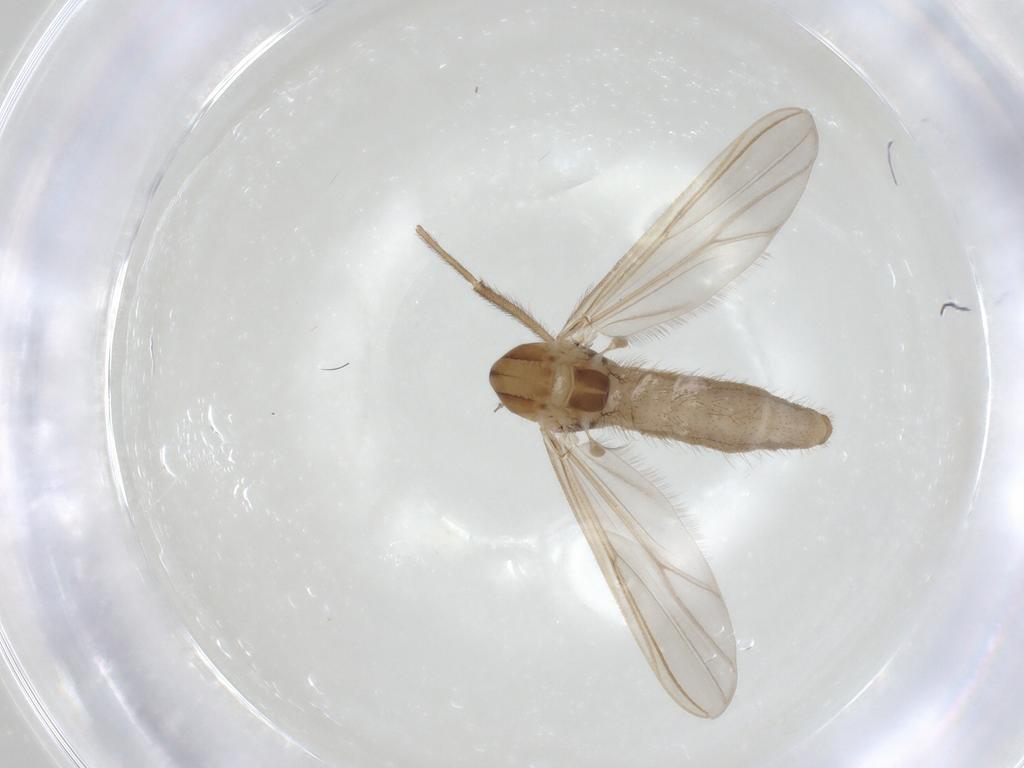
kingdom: Animalia
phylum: Arthropoda
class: Insecta
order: Diptera
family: Chironomidae
